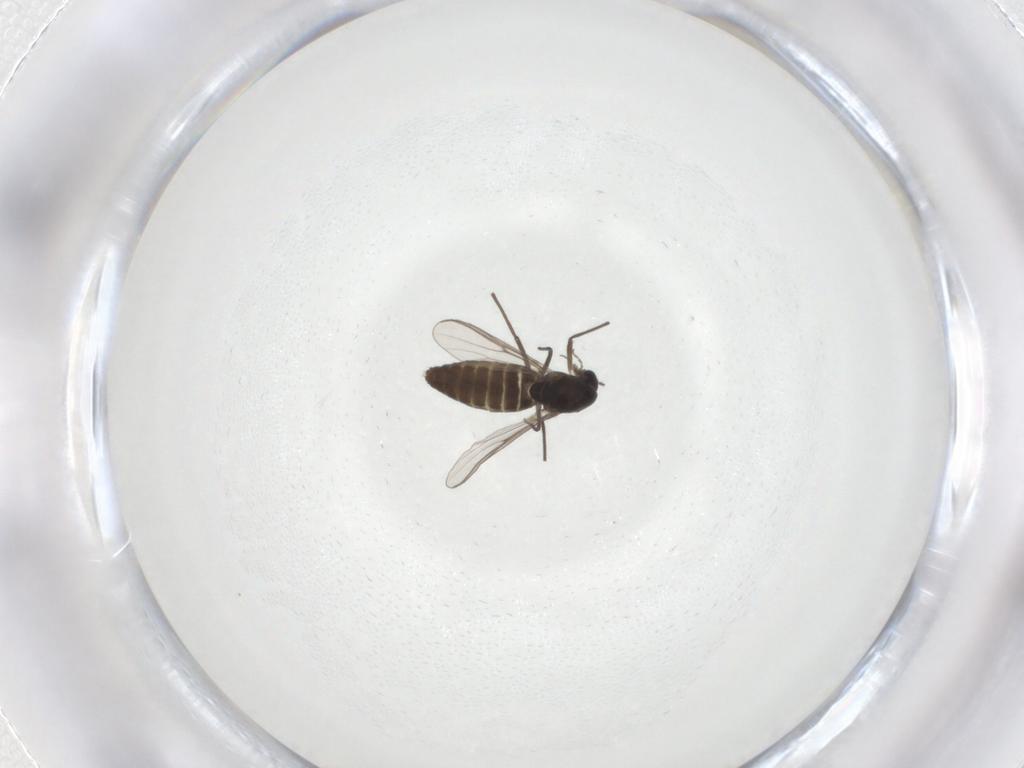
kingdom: Animalia
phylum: Arthropoda
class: Insecta
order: Diptera
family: Chironomidae
